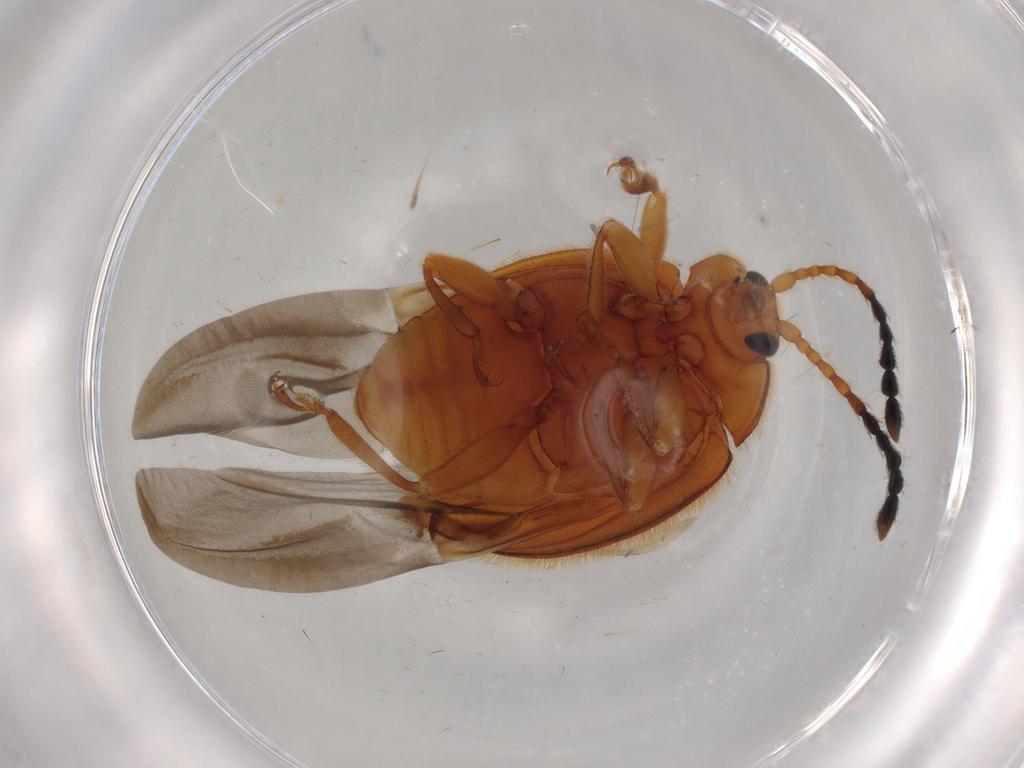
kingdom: Animalia
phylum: Arthropoda
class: Insecta
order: Coleoptera
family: Endomychidae
